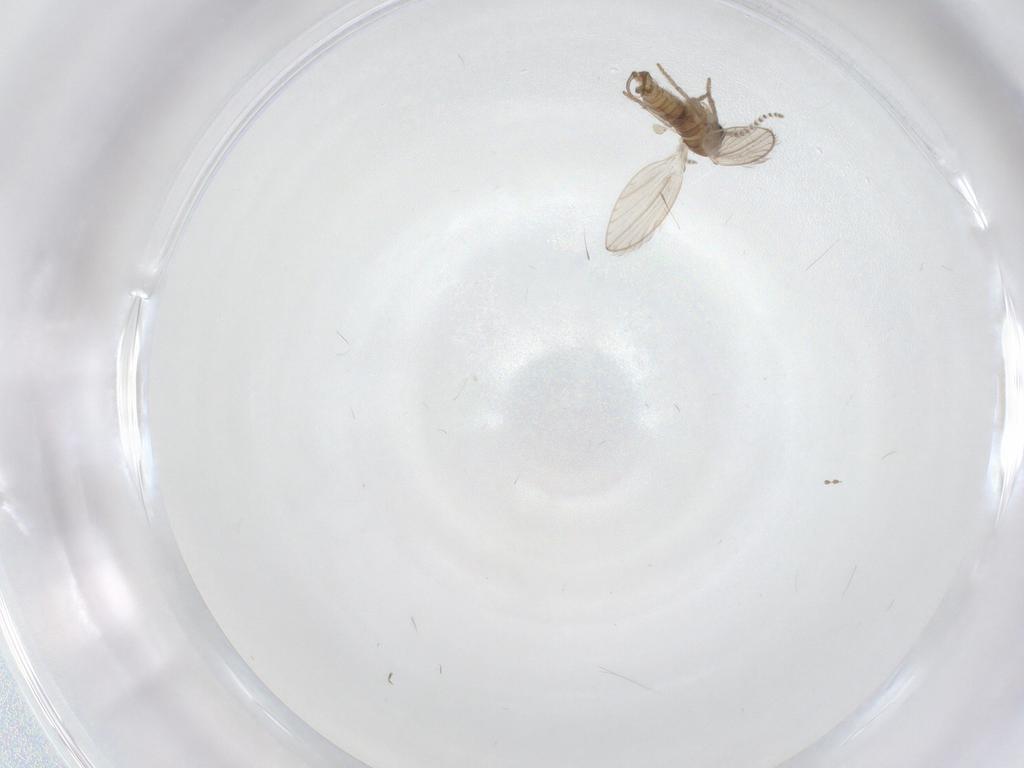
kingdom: Animalia
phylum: Arthropoda
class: Insecta
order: Diptera
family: Psychodidae
